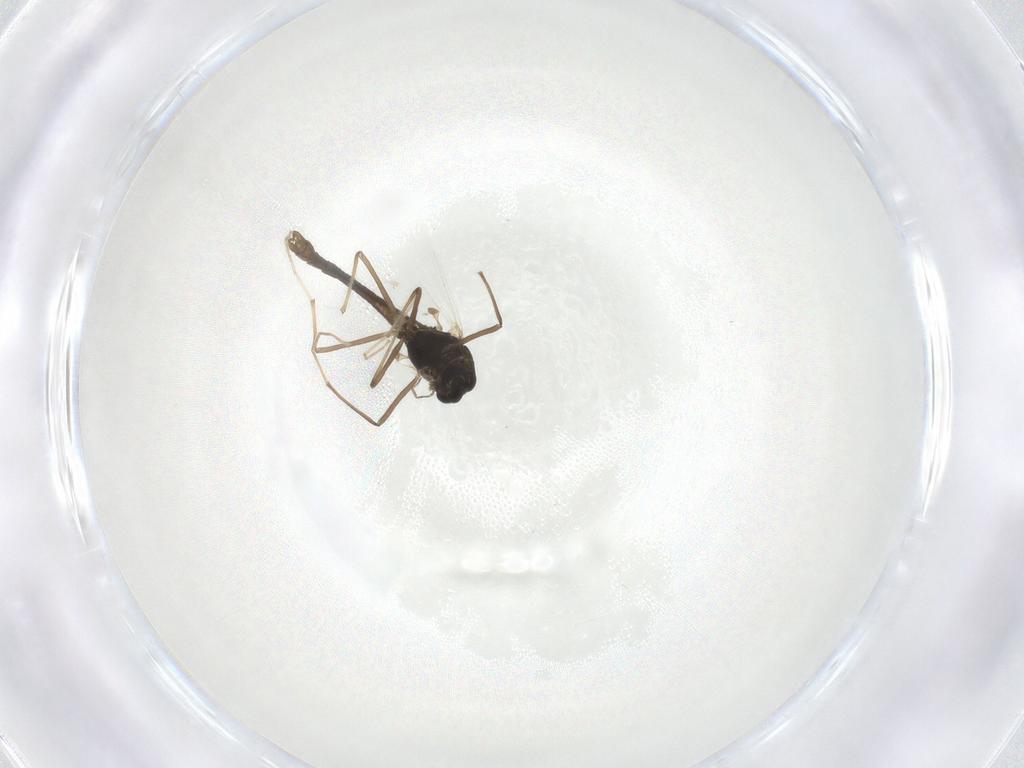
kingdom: Animalia
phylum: Arthropoda
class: Insecta
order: Diptera
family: Chironomidae
